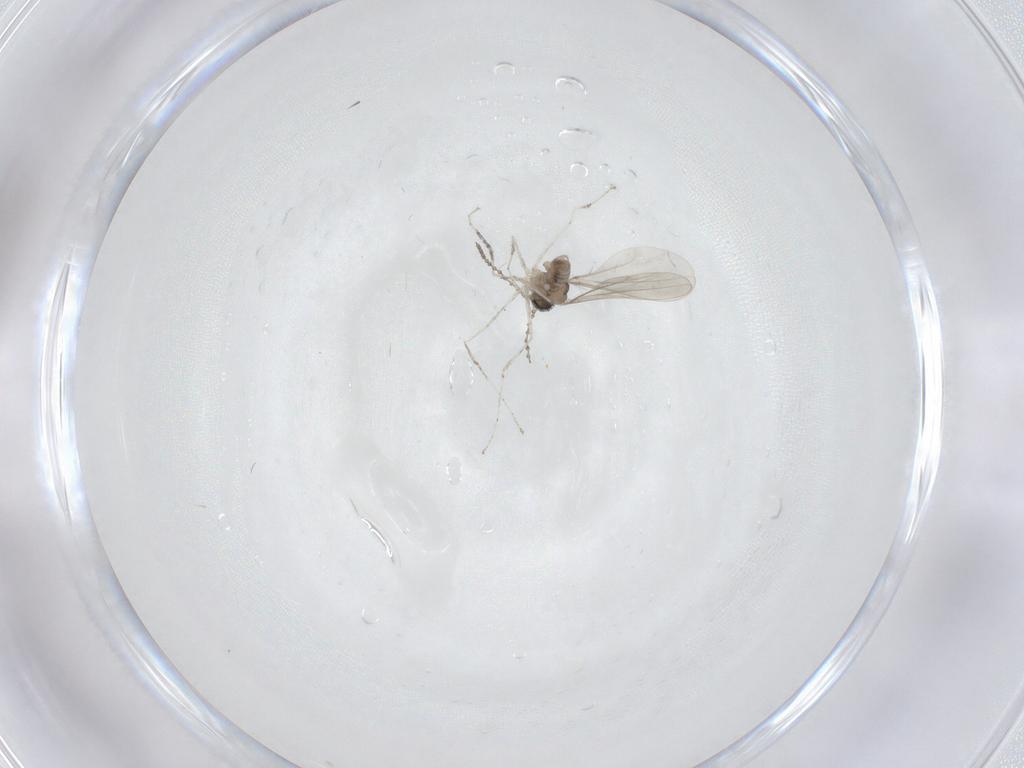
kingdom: Animalia
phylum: Arthropoda
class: Insecta
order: Diptera
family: Cecidomyiidae
